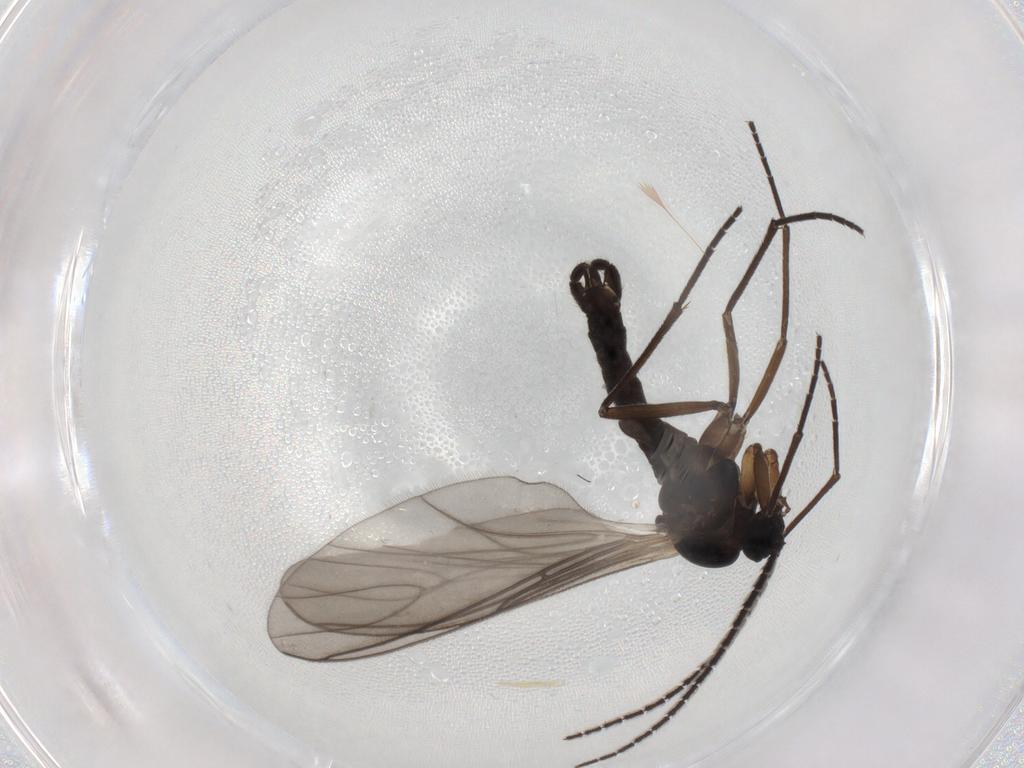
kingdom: Animalia
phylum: Arthropoda
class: Insecta
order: Diptera
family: Sciaridae
